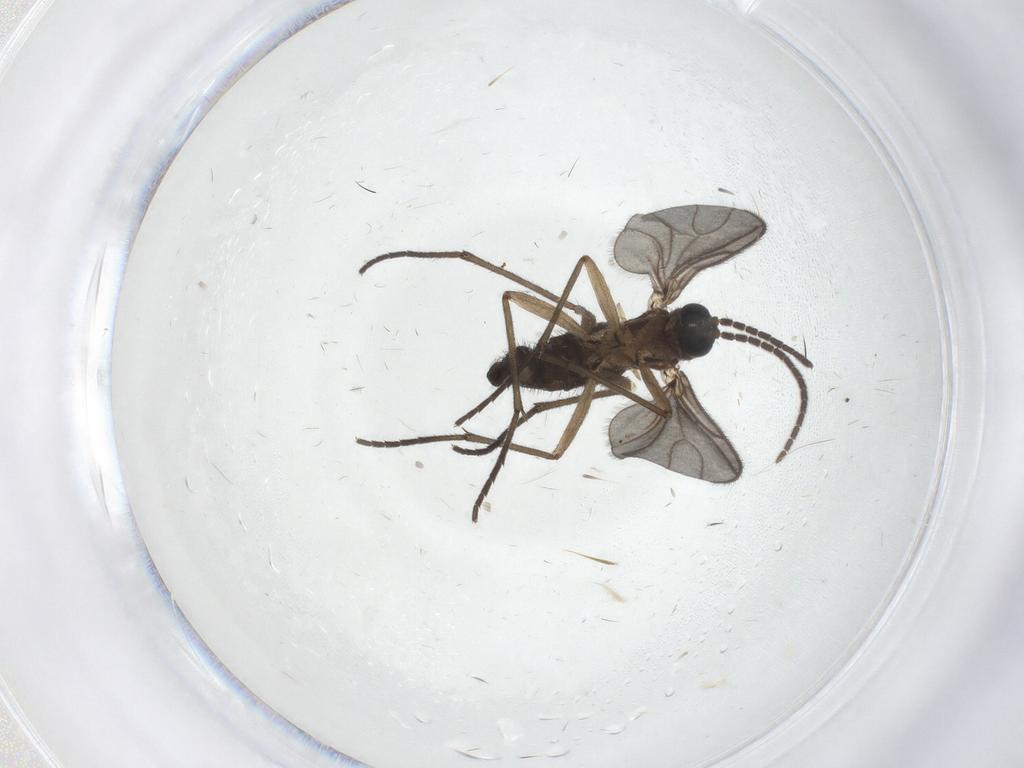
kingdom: Animalia
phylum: Arthropoda
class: Insecta
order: Diptera
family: Sciaridae
